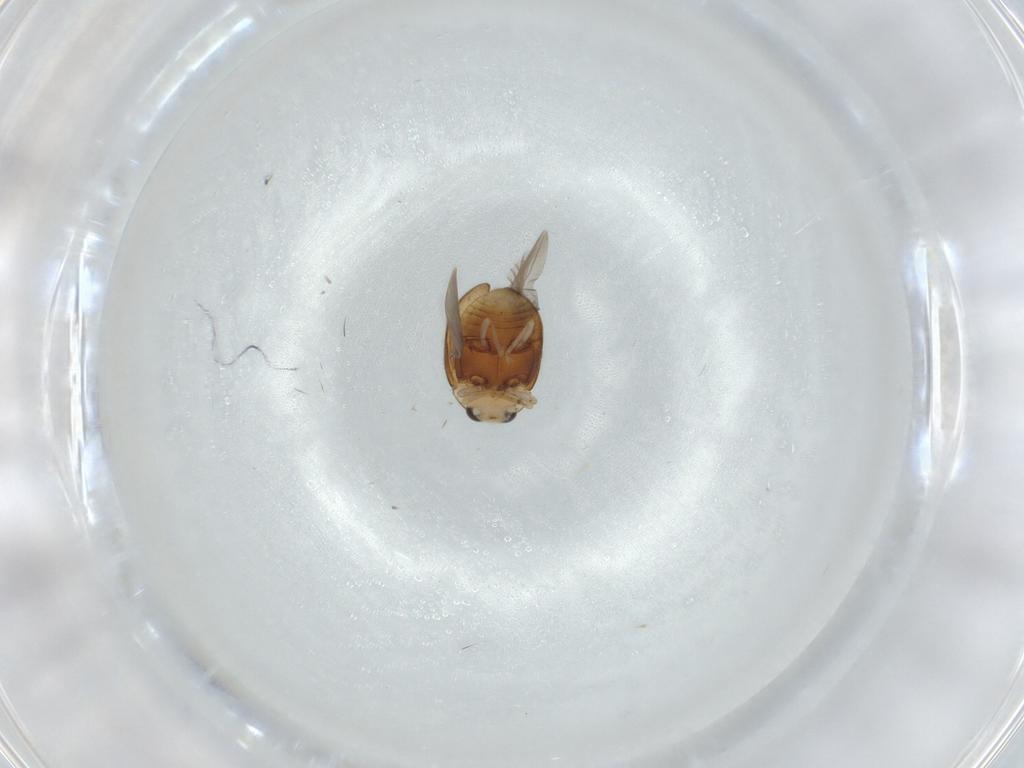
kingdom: Animalia
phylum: Arthropoda
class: Insecta
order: Coleoptera
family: Coccinellidae
